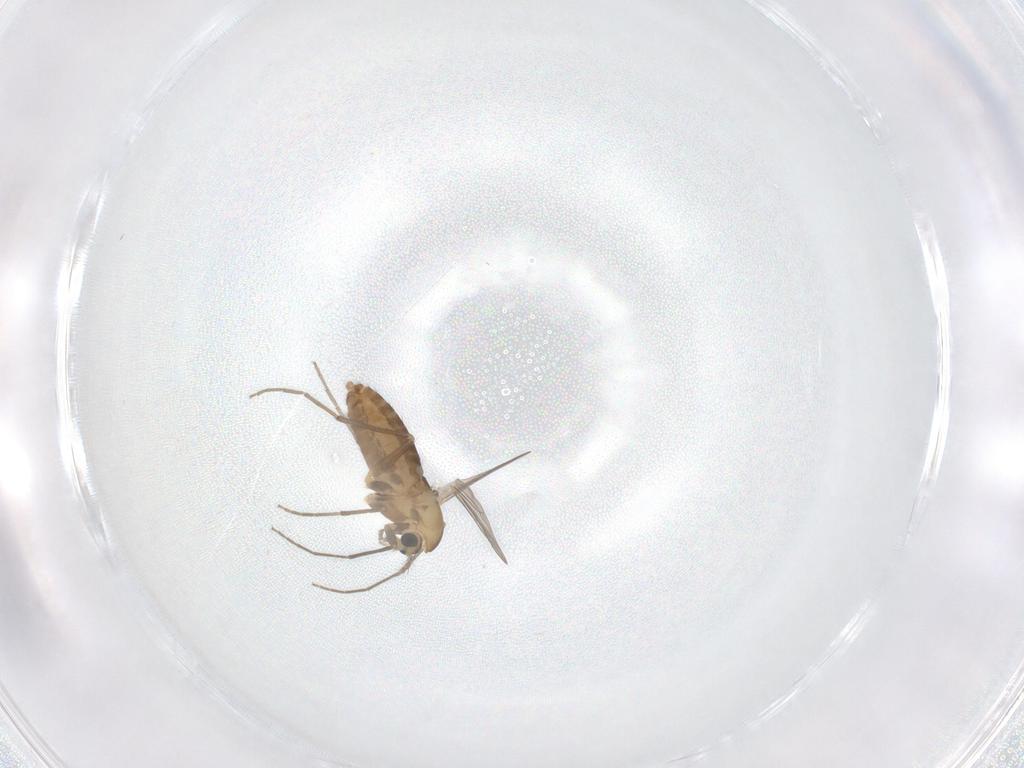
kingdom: Animalia
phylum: Arthropoda
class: Insecta
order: Diptera
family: Chironomidae
